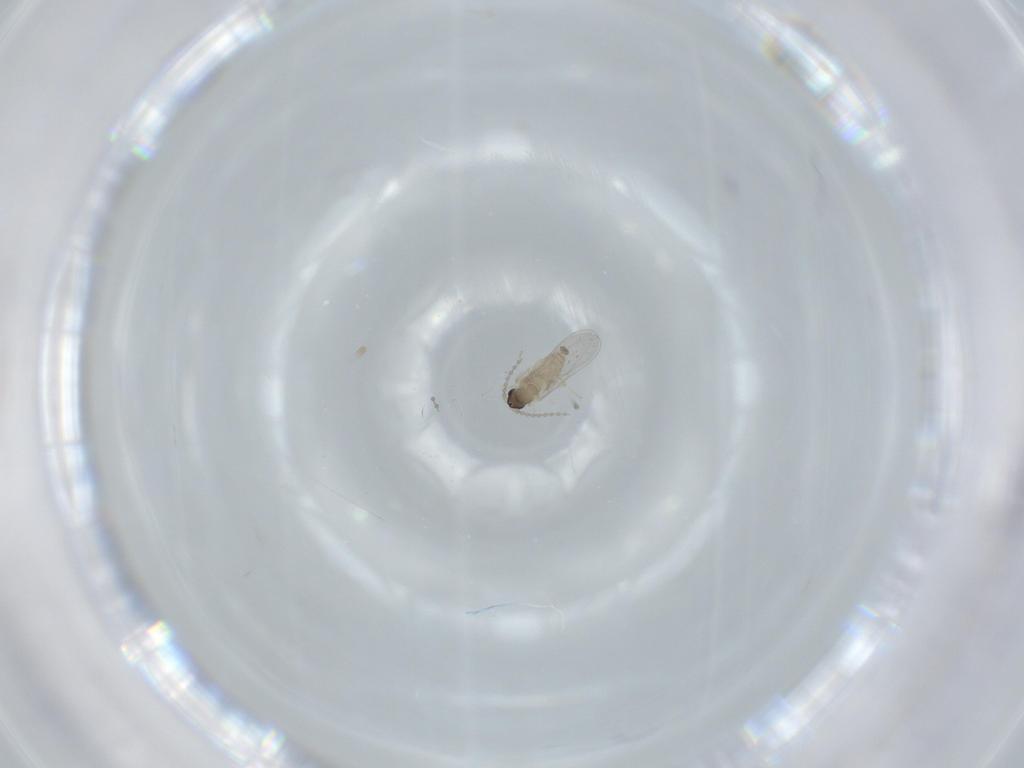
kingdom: Animalia
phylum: Arthropoda
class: Insecta
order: Diptera
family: Cecidomyiidae
